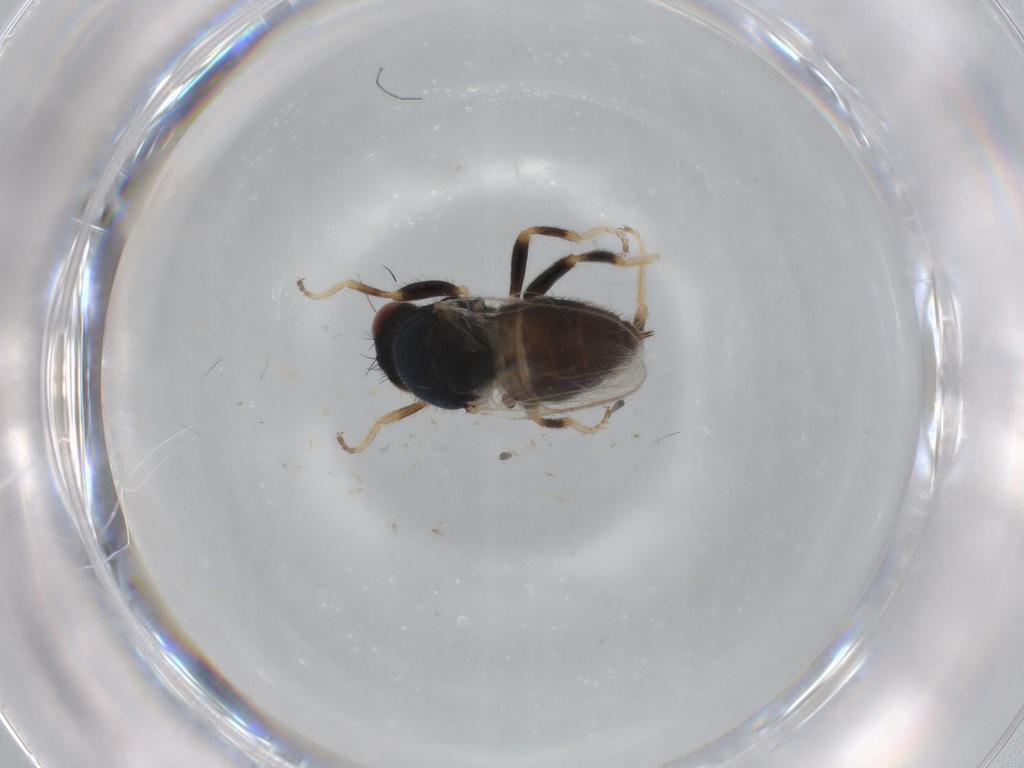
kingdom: Animalia
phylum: Arthropoda
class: Insecta
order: Diptera
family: Chloropidae
